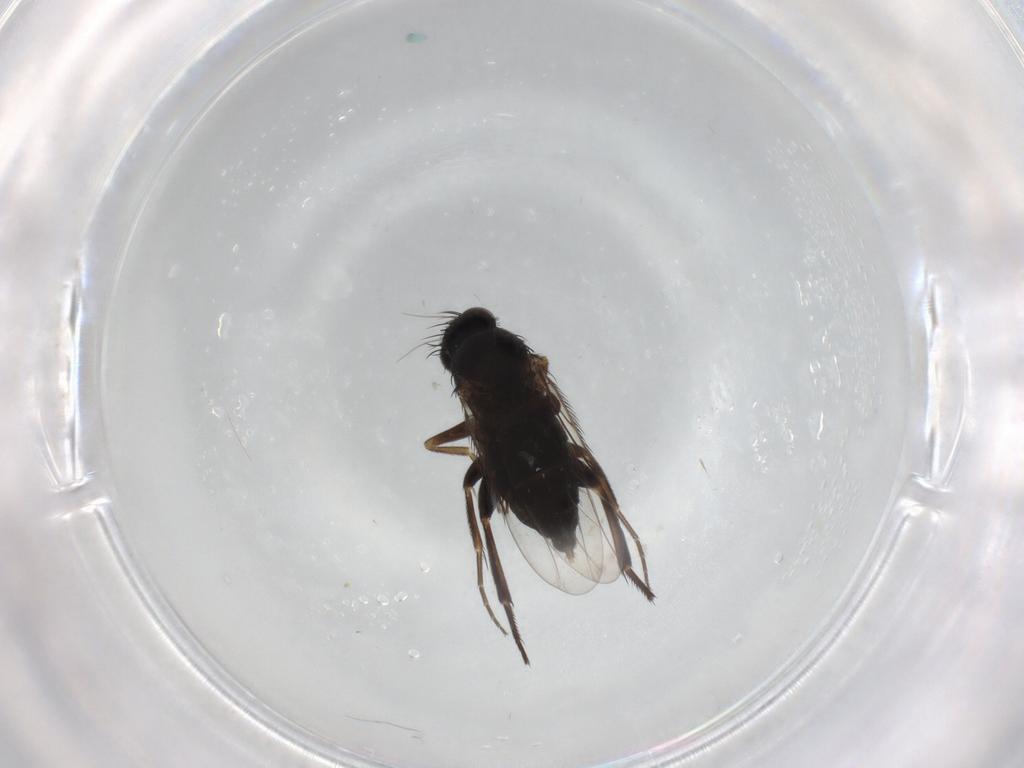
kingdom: Animalia
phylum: Arthropoda
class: Insecta
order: Diptera
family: Phoridae
